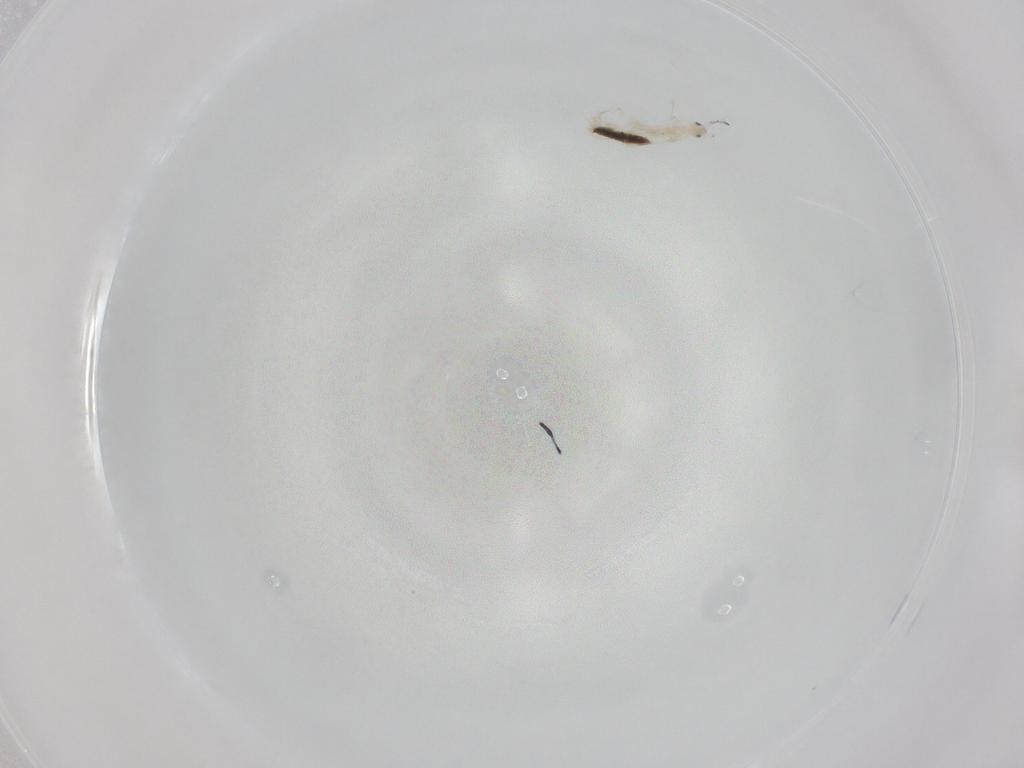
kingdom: Animalia
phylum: Arthropoda
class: Collembola
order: Entomobryomorpha
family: Entomobryidae
